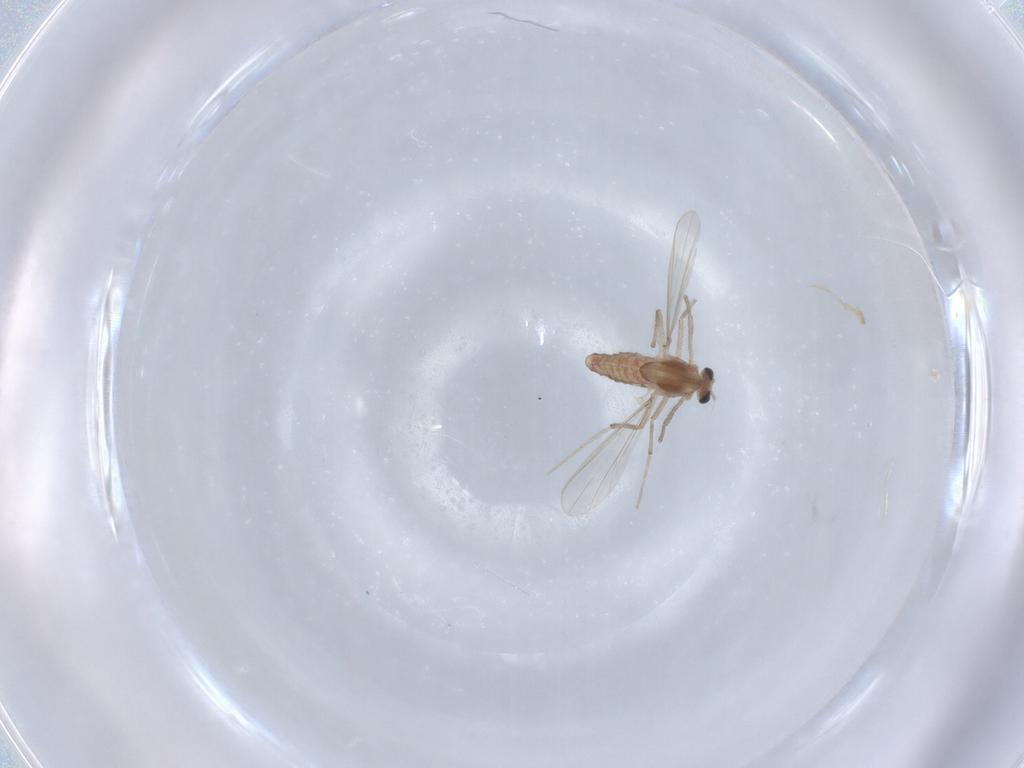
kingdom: Animalia
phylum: Arthropoda
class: Insecta
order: Diptera
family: Chironomidae
